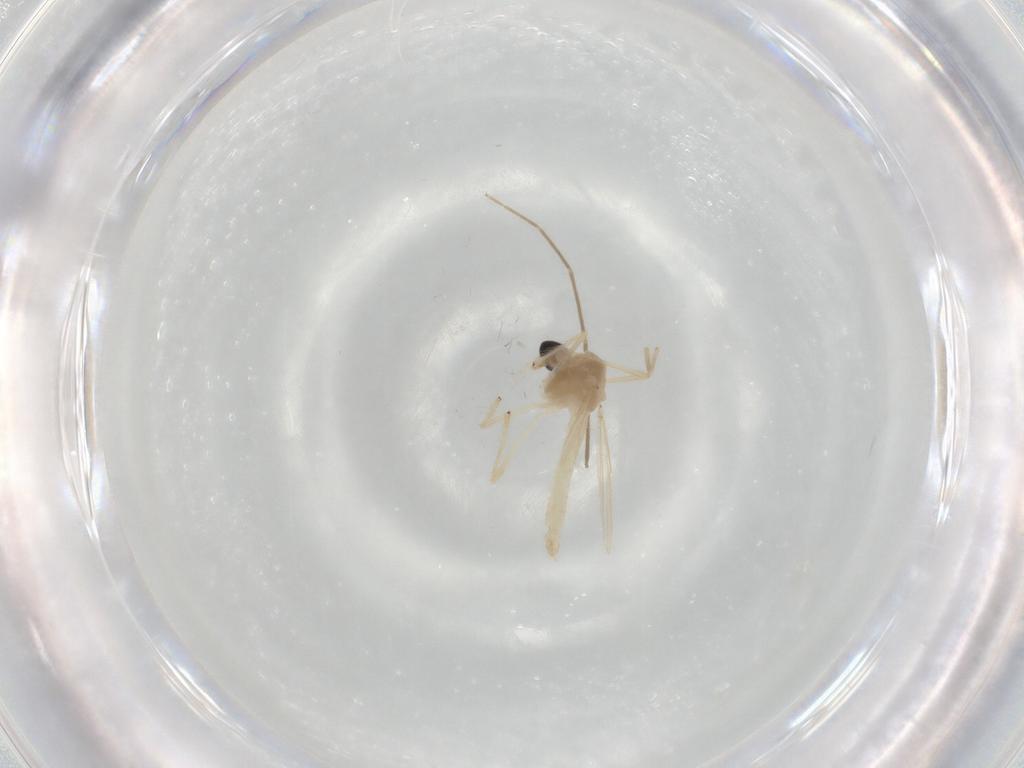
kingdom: Animalia
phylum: Arthropoda
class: Insecta
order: Diptera
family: Chironomidae
